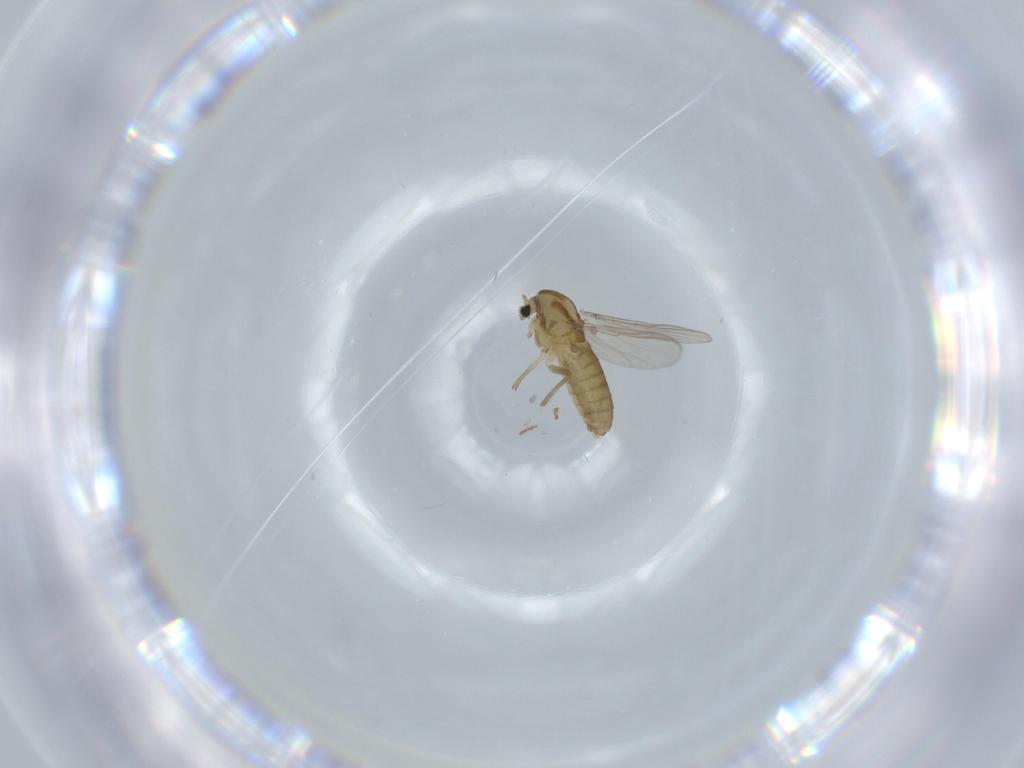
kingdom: Animalia
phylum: Arthropoda
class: Insecta
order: Diptera
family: Chironomidae
